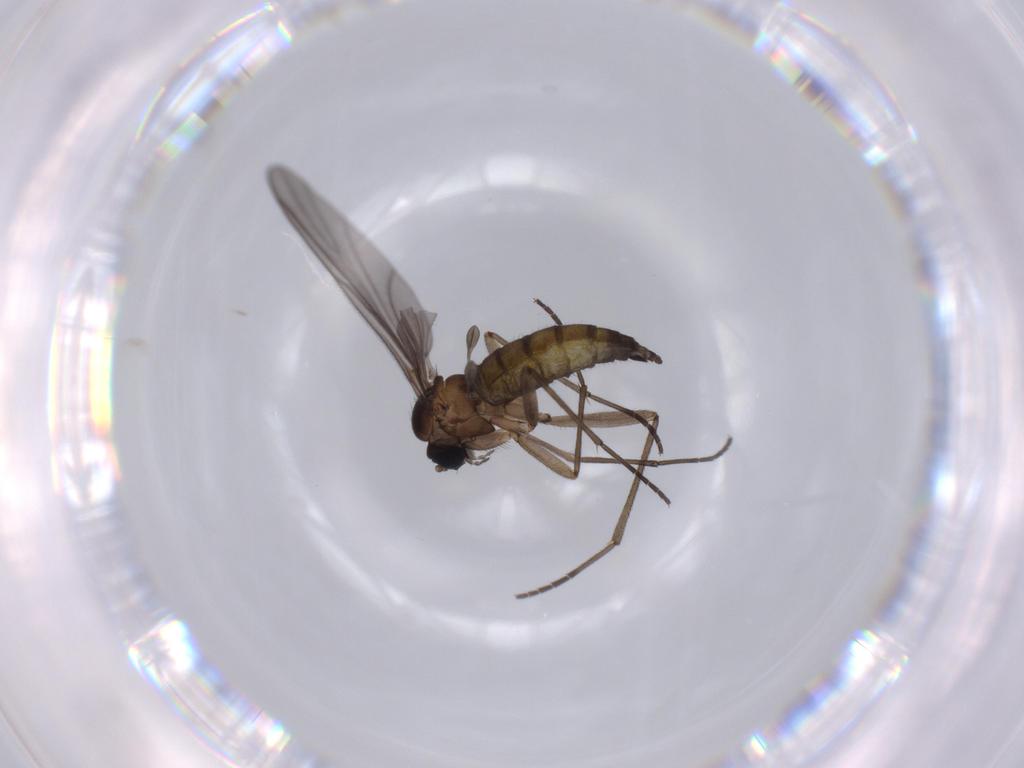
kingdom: Animalia
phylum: Arthropoda
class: Insecta
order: Diptera
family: Sciaridae
